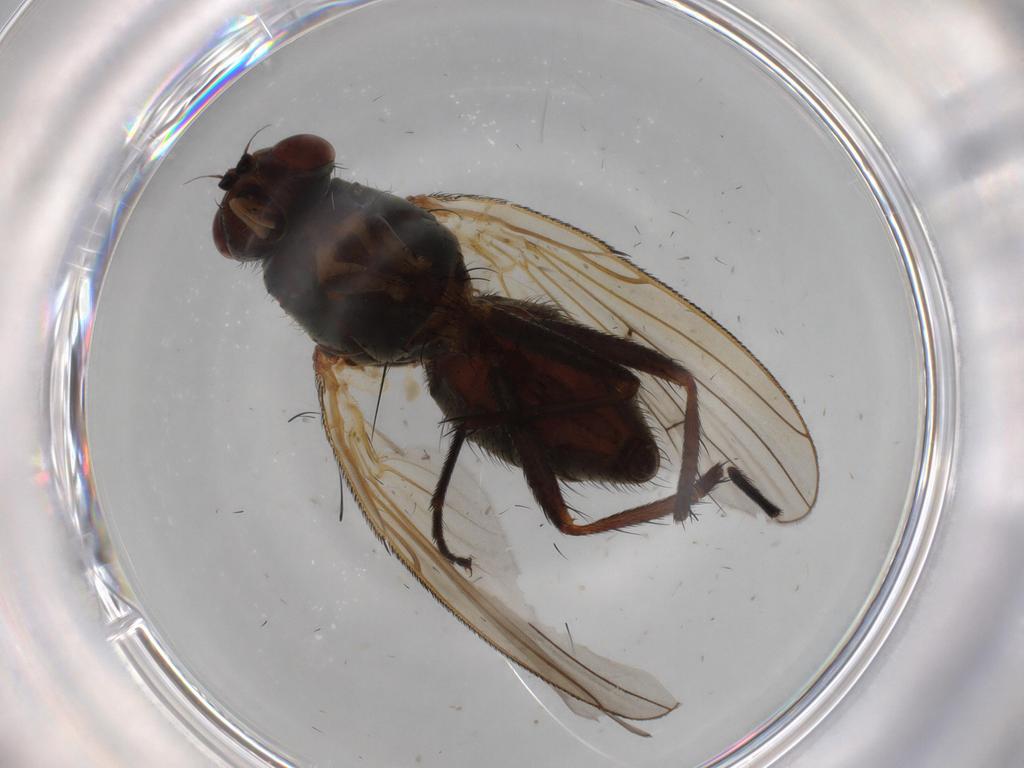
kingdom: Animalia
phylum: Arthropoda
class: Insecta
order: Diptera
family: Anthomyiidae
